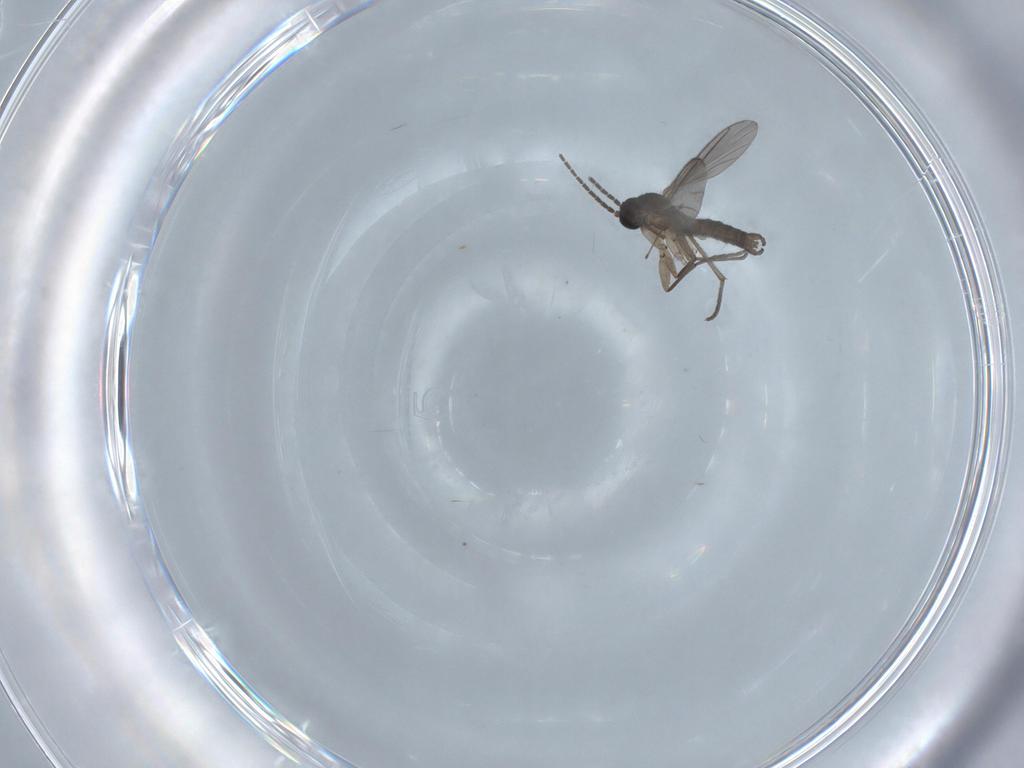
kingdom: Animalia
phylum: Arthropoda
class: Insecta
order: Diptera
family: Sciaridae
